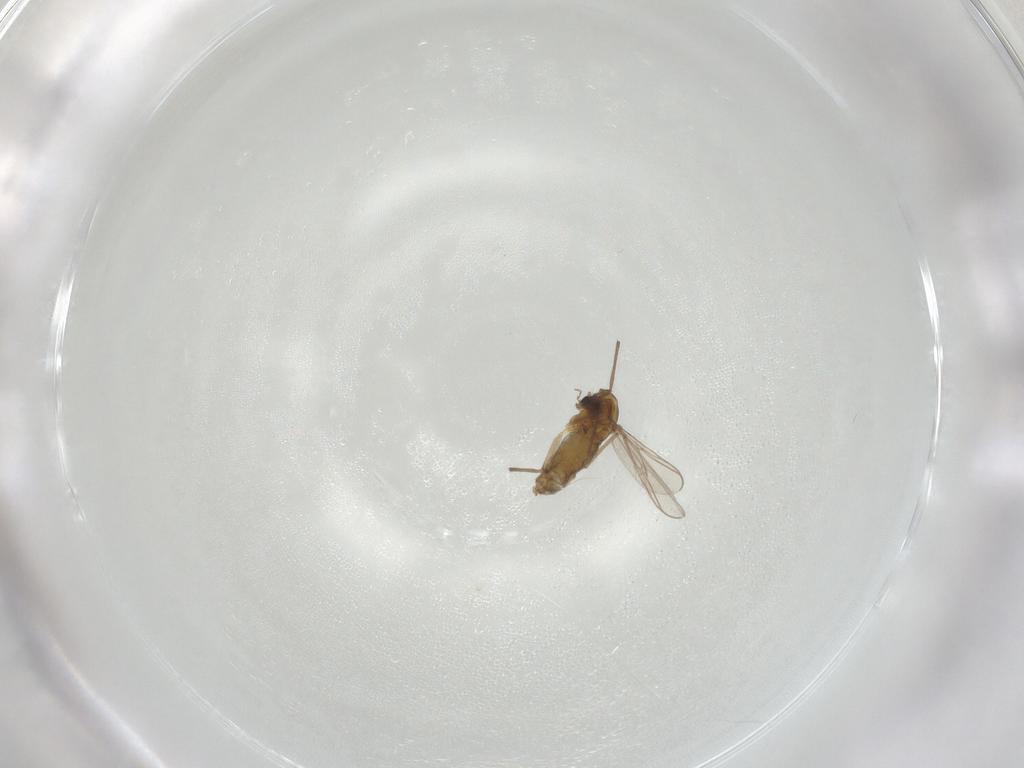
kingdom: Animalia
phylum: Arthropoda
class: Insecta
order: Diptera
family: Chironomidae
